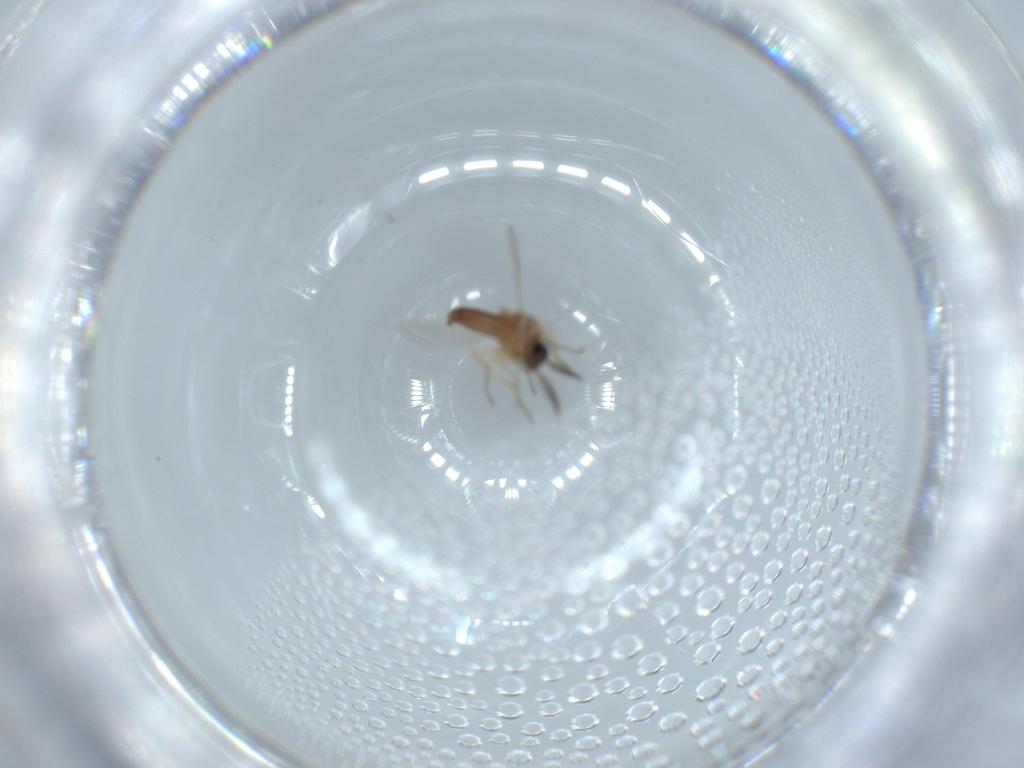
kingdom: Animalia
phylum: Arthropoda
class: Insecta
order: Diptera
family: Ceratopogonidae
